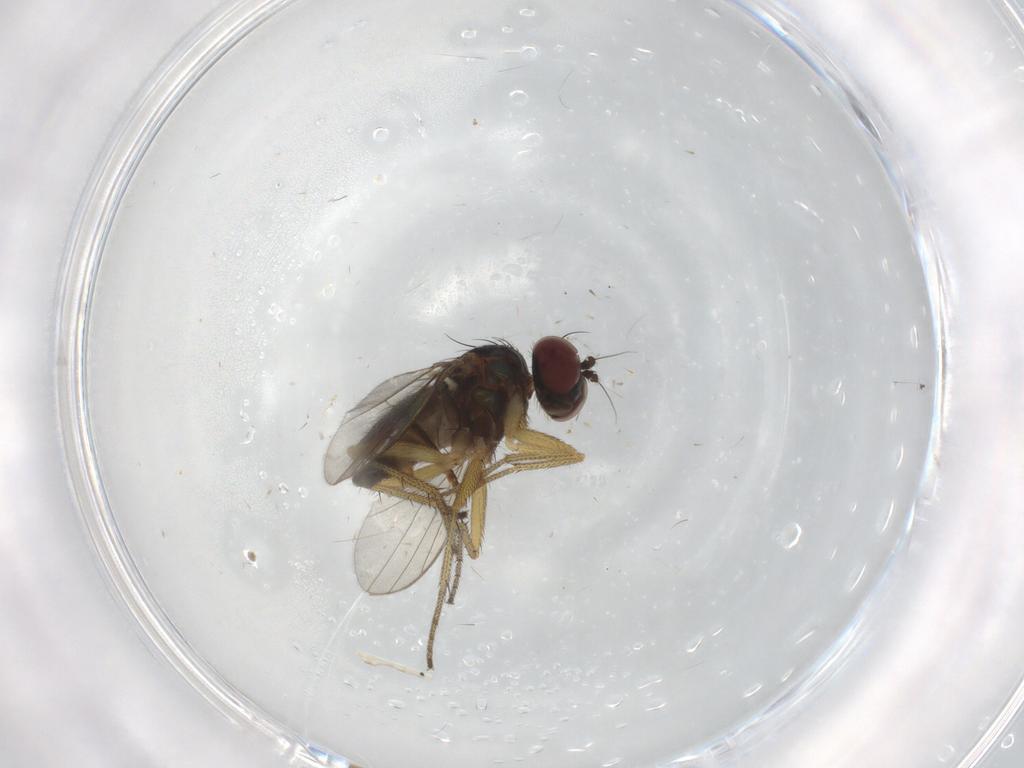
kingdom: Animalia
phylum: Arthropoda
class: Insecta
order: Diptera
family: Dolichopodidae
